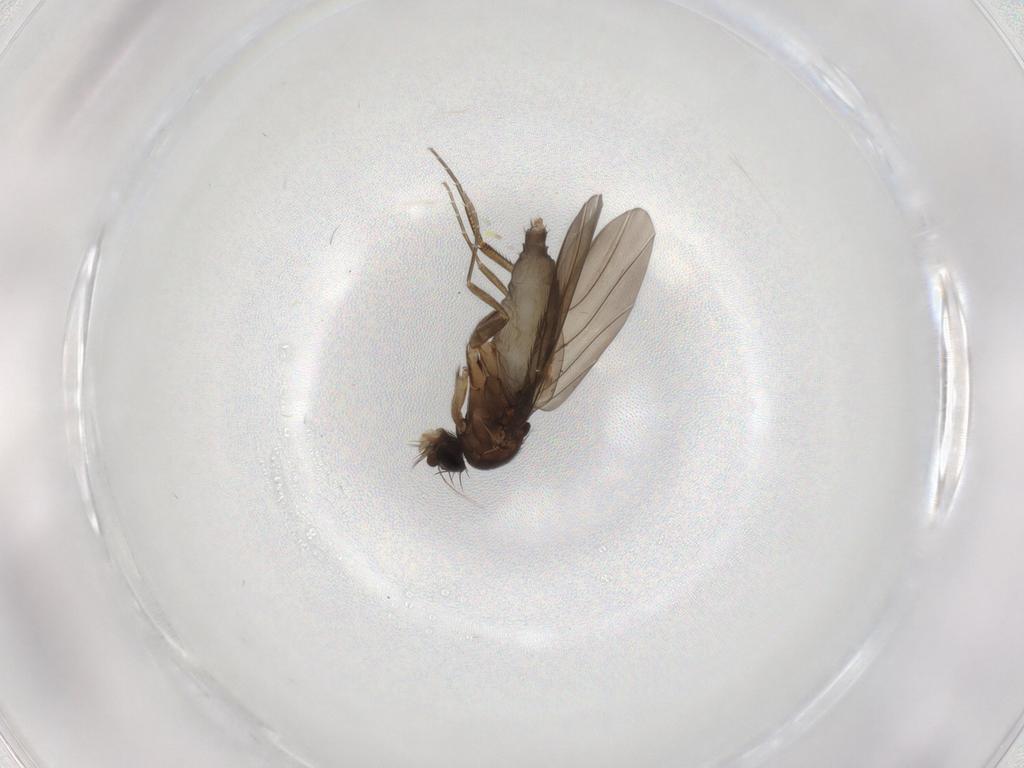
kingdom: Animalia
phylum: Arthropoda
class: Insecta
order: Diptera
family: Phoridae
